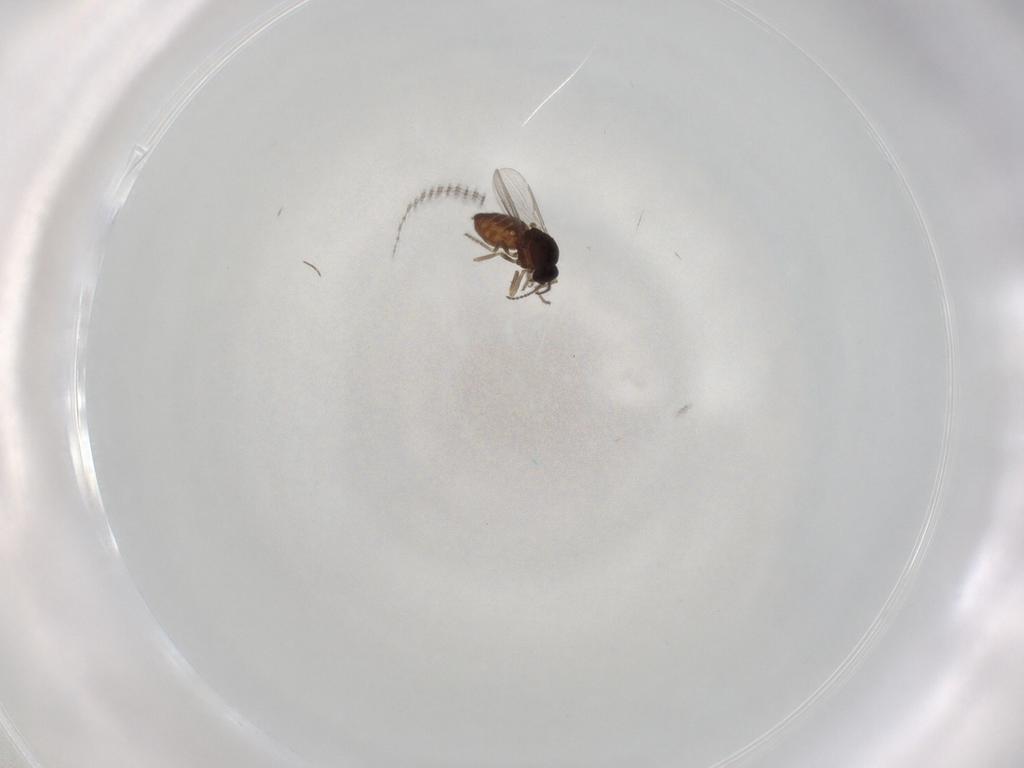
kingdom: Animalia
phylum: Arthropoda
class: Insecta
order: Diptera
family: Ceratopogonidae
